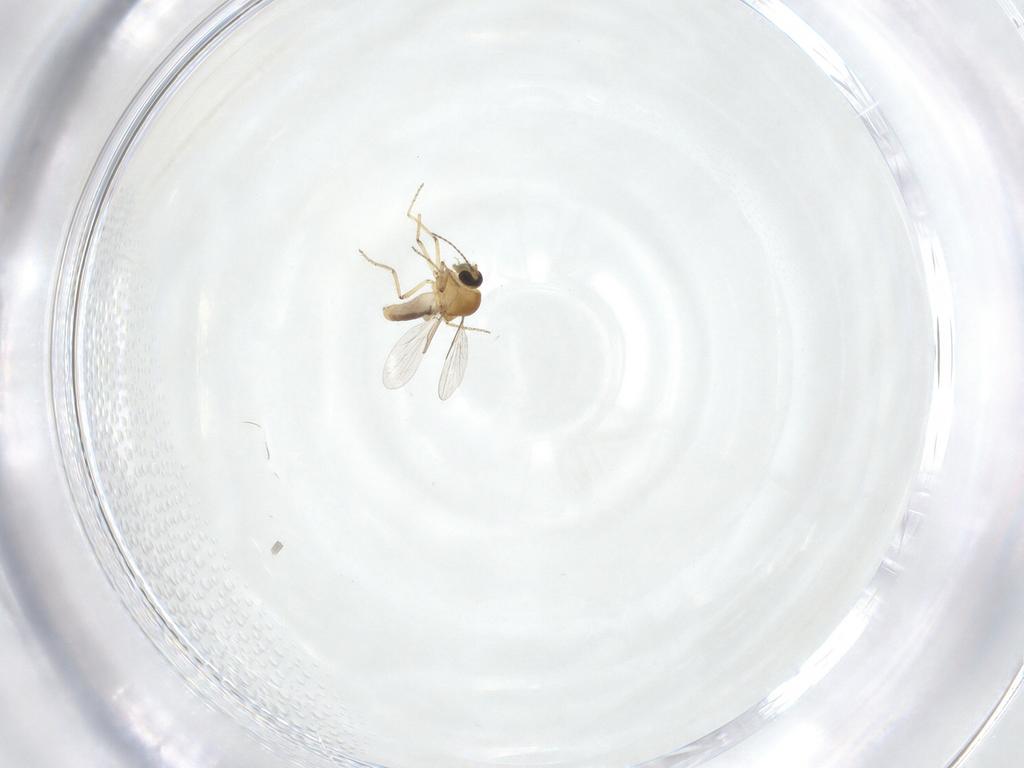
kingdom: Animalia
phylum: Arthropoda
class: Insecta
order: Diptera
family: Ceratopogonidae
